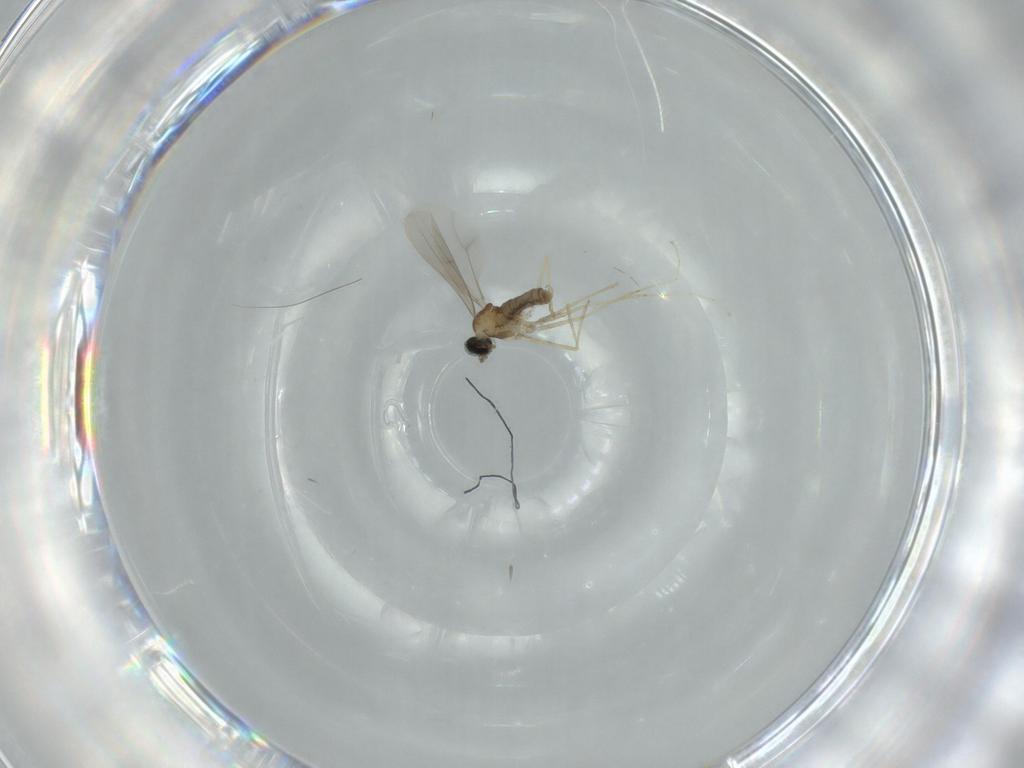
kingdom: Animalia
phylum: Arthropoda
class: Insecta
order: Diptera
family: Cecidomyiidae
